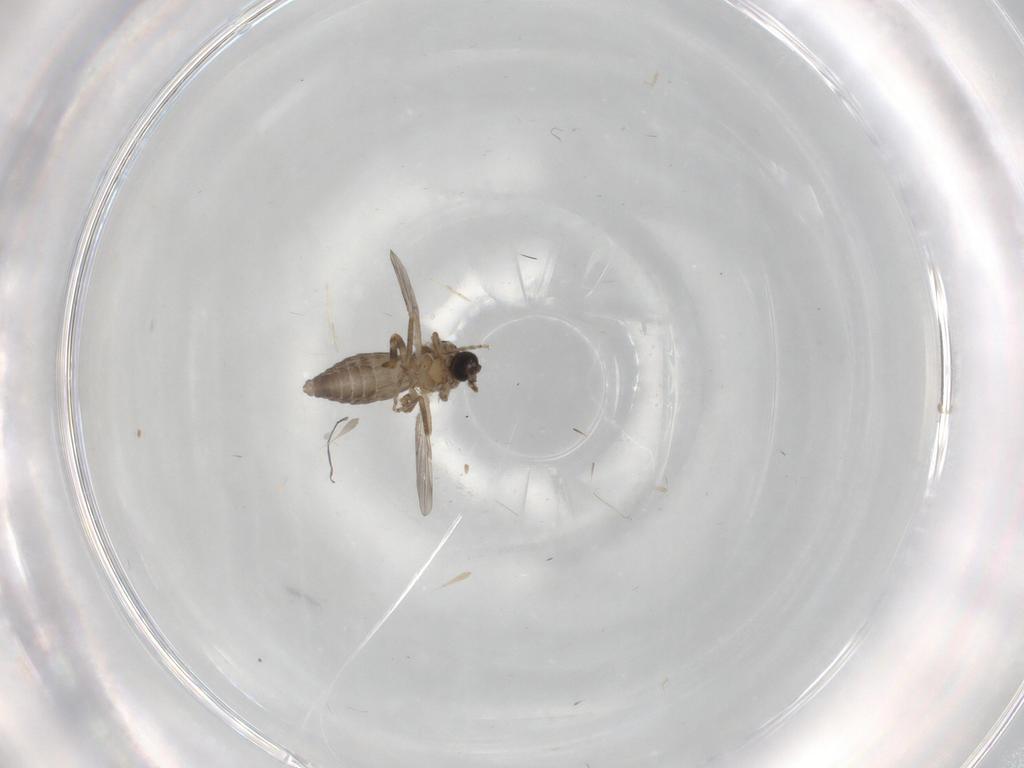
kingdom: Animalia
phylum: Arthropoda
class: Insecta
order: Diptera
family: Ceratopogonidae
